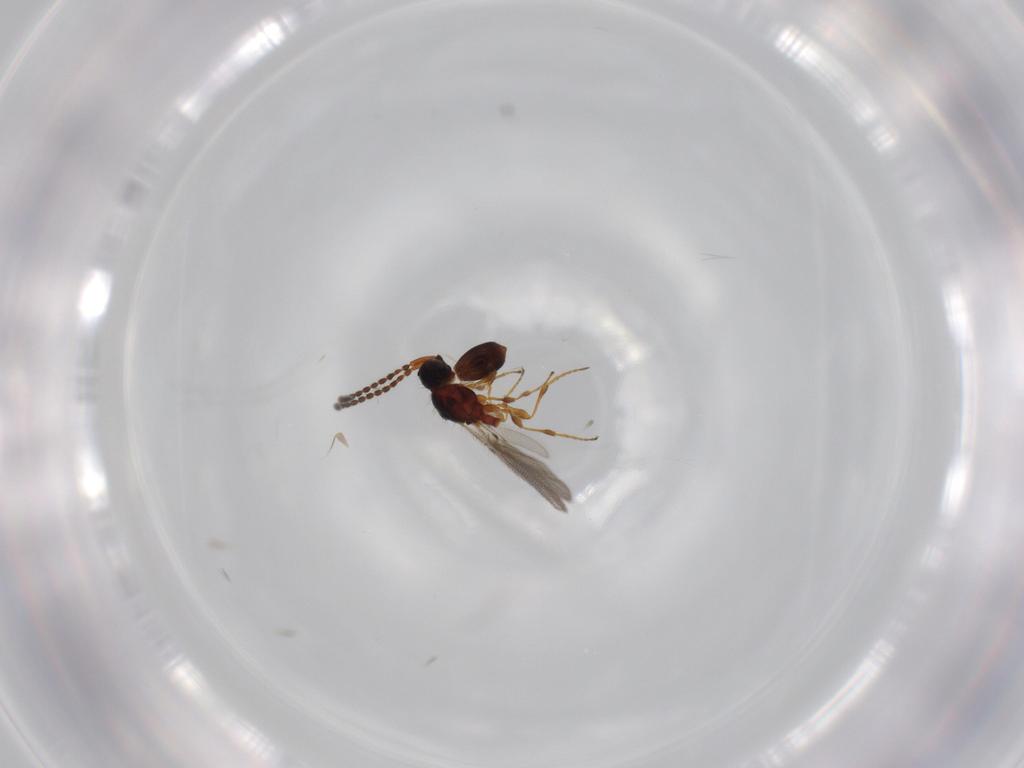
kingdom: Animalia
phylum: Arthropoda
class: Insecta
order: Hymenoptera
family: Diapriidae
